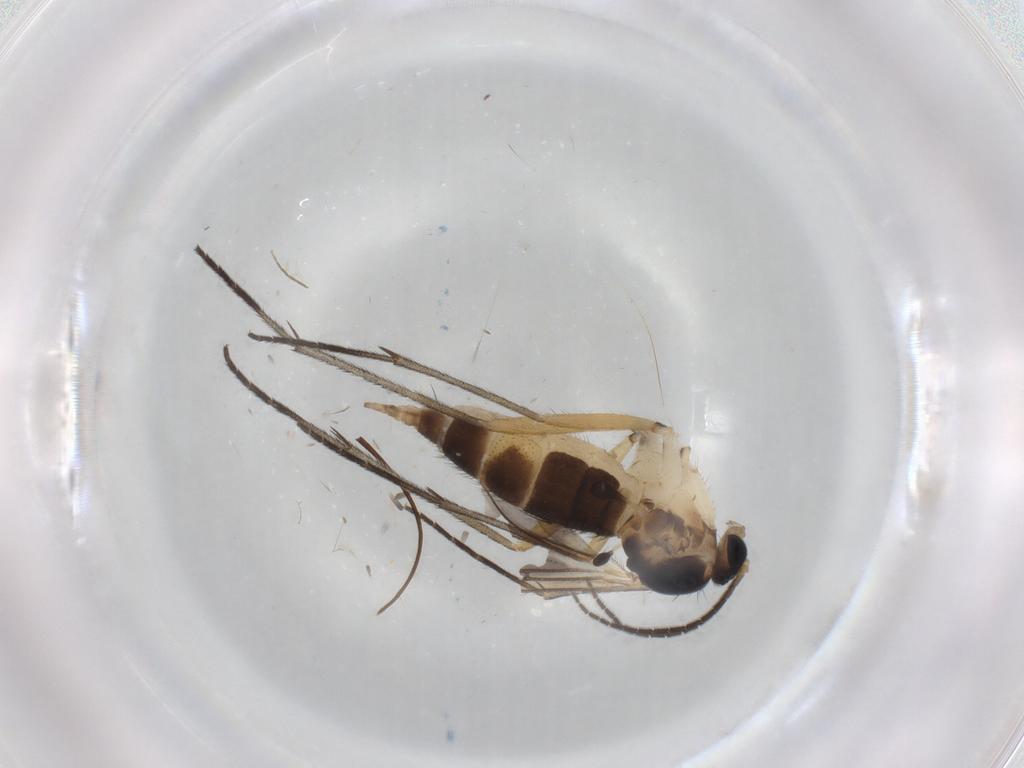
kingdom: Animalia
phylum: Arthropoda
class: Insecta
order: Diptera
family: Sciaridae
